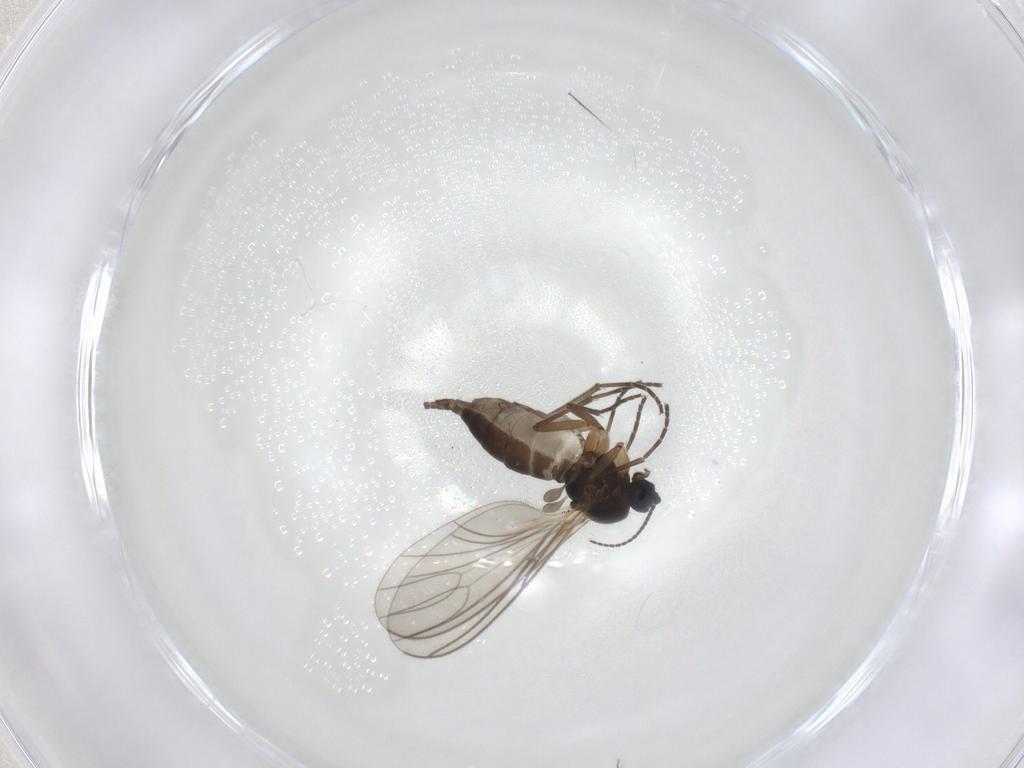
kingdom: Animalia
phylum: Arthropoda
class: Insecta
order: Diptera
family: Sciaridae
